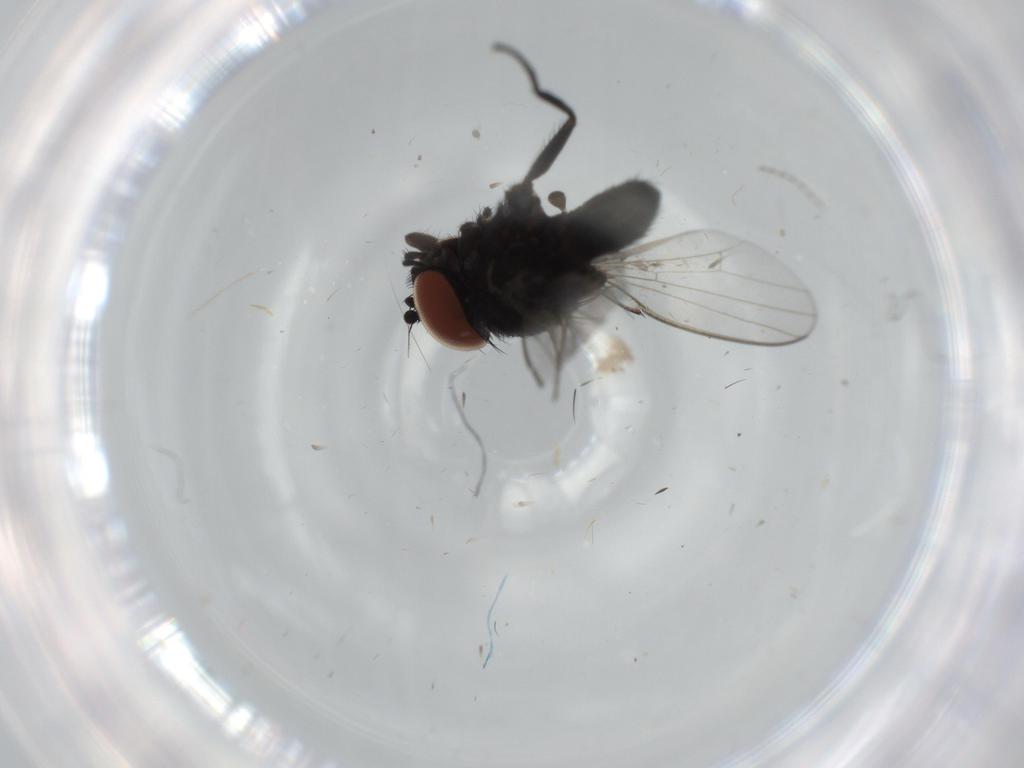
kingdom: Animalia
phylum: Arthropoda
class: Insecta
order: Diptera
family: Milichiidae
